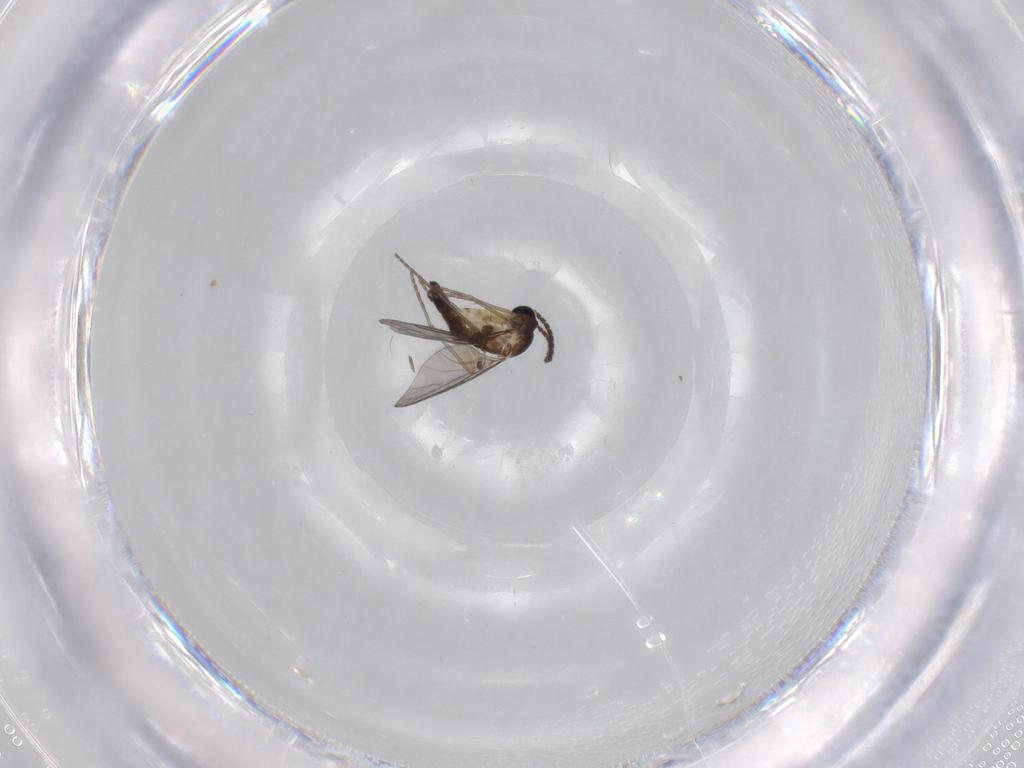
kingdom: Animalia
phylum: Arthropoda
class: Insecta
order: Diptera
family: Sciaridae
